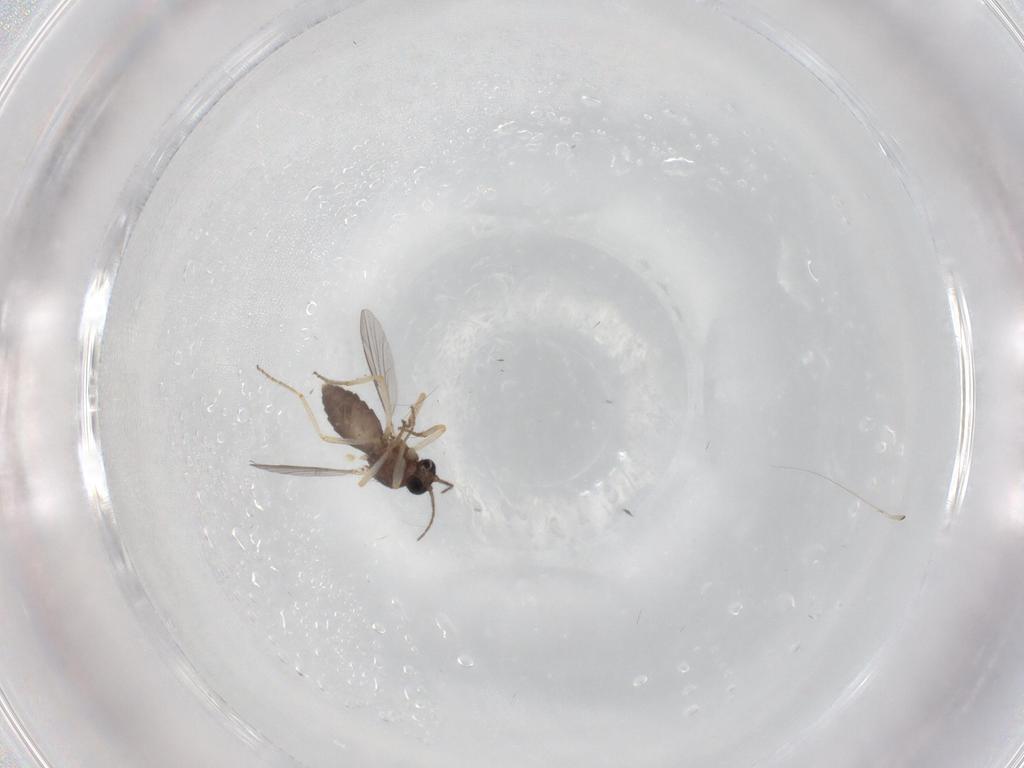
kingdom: Animalia
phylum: Arthropoda
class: Insecta
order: Diptera
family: Ceratopogonidae
